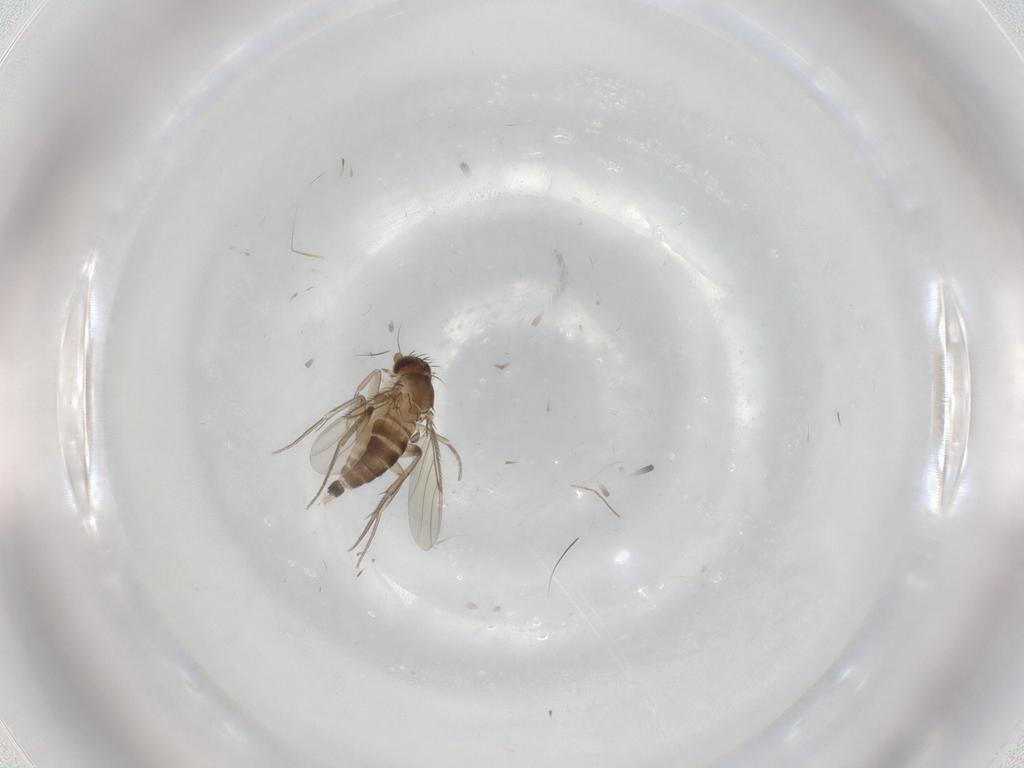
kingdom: Animalia
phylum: Arthropoda
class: Insecta
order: Diptera
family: Phoridae
